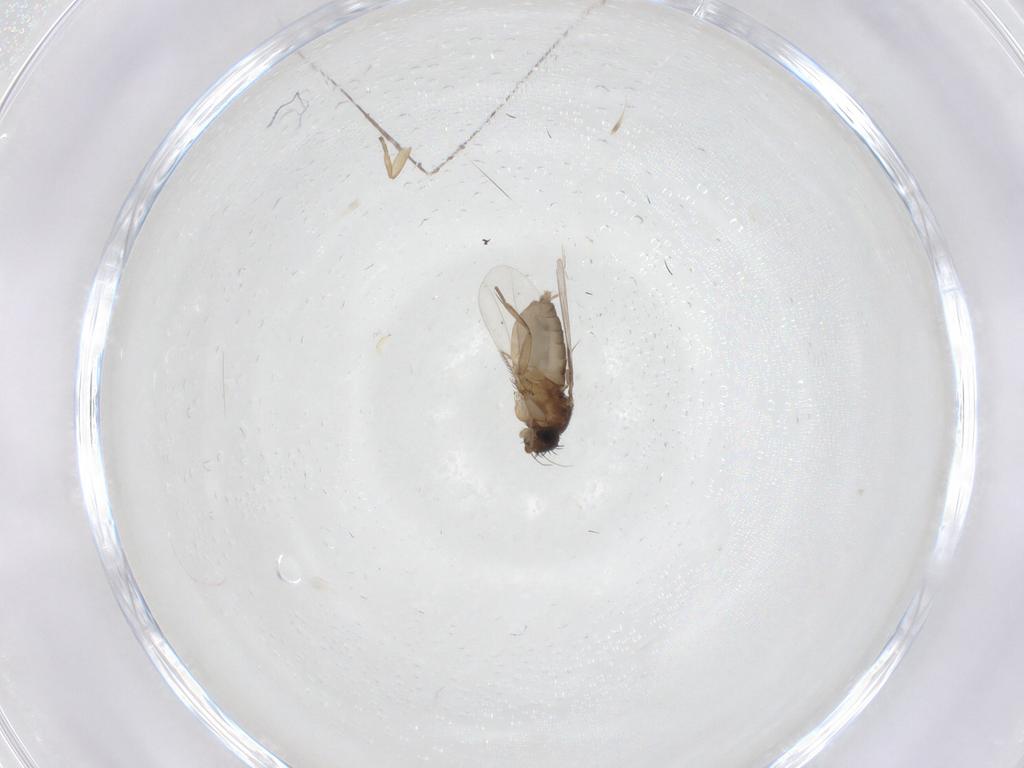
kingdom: Animalia
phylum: Arthropoda
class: Insecta
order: Diptera
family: Phoridae
